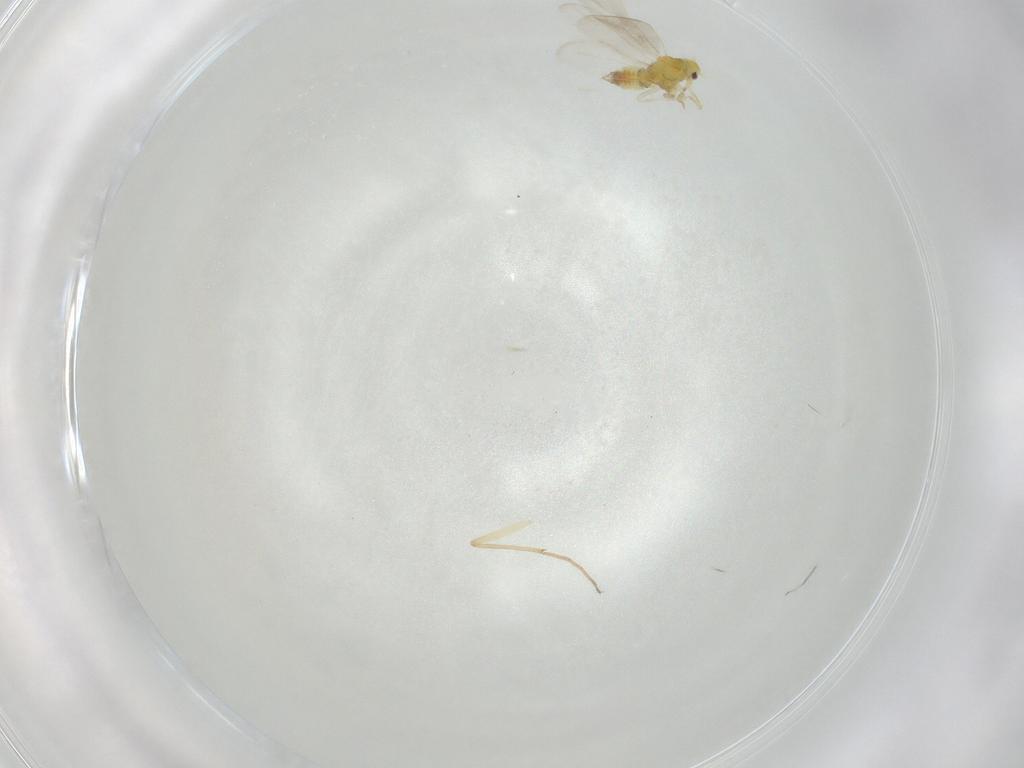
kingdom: Animalia
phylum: Arthropoda
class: Insecta
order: Hemiptera
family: Aleyrodidae
